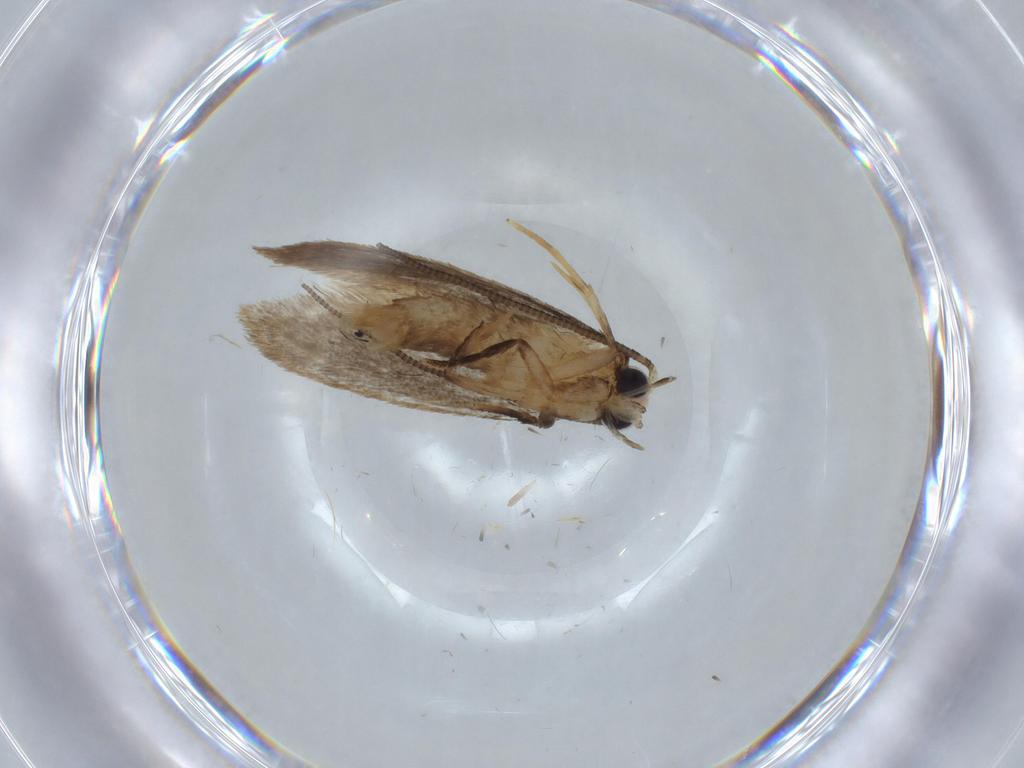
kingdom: Animalia
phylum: Arthropoda
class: Insecta
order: Lepidoptera
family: Tineidae
